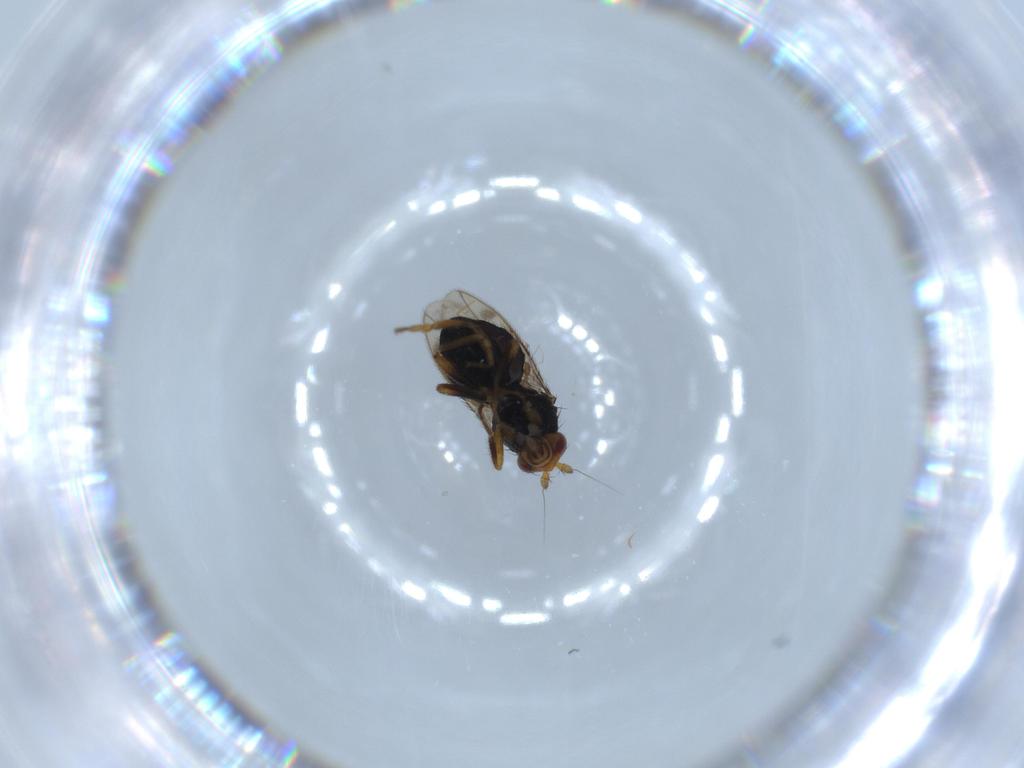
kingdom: Animalia
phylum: Arthropoda
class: Insecta
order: Diptera
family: Sphaeroceridae
